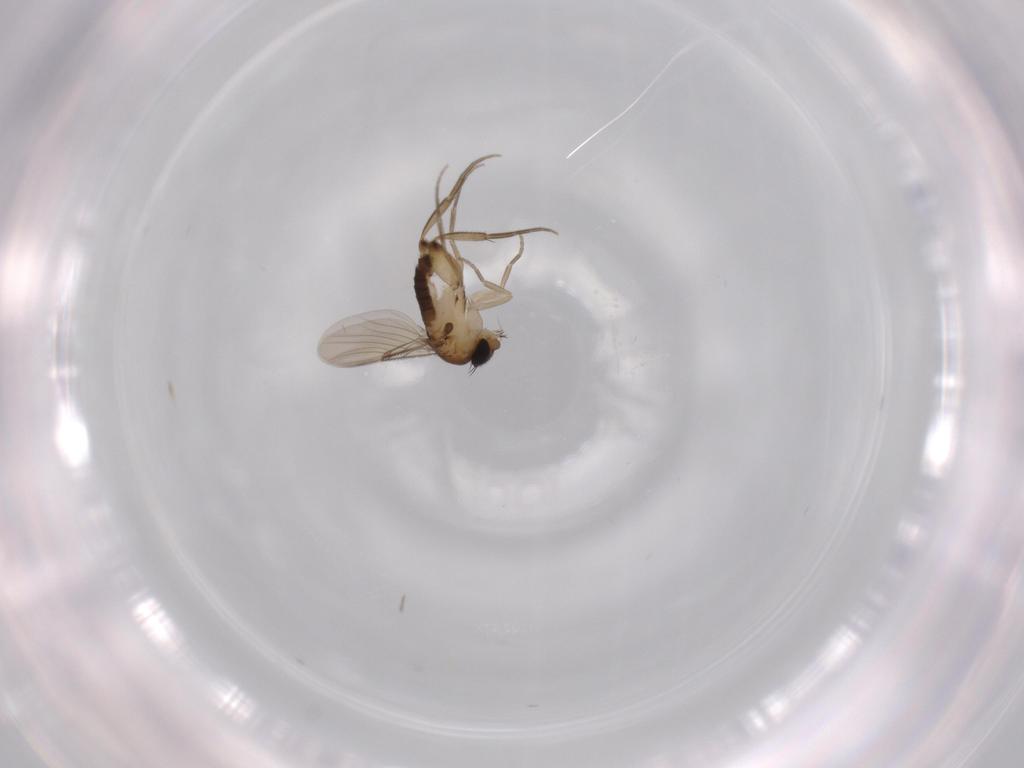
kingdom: Animalia
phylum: Arthropoda
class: Insecta
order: Diptera
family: Phoridae
